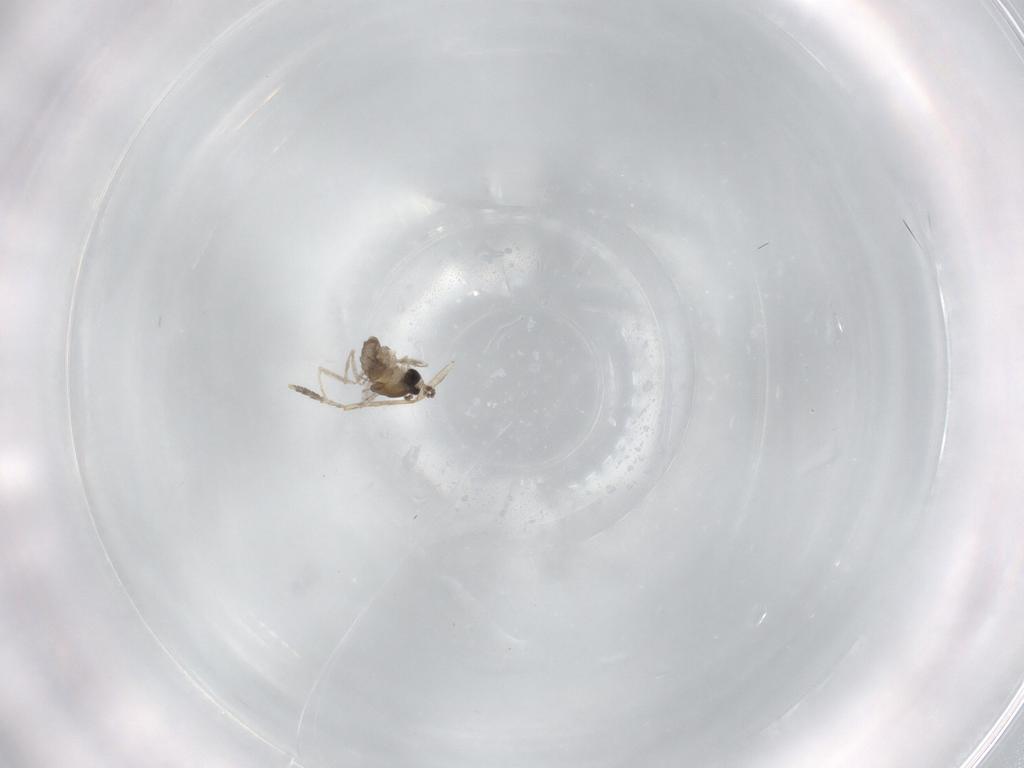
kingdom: Animalia
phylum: Arthropoda
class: Insecta
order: Diptera
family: Cecidomyiidae
